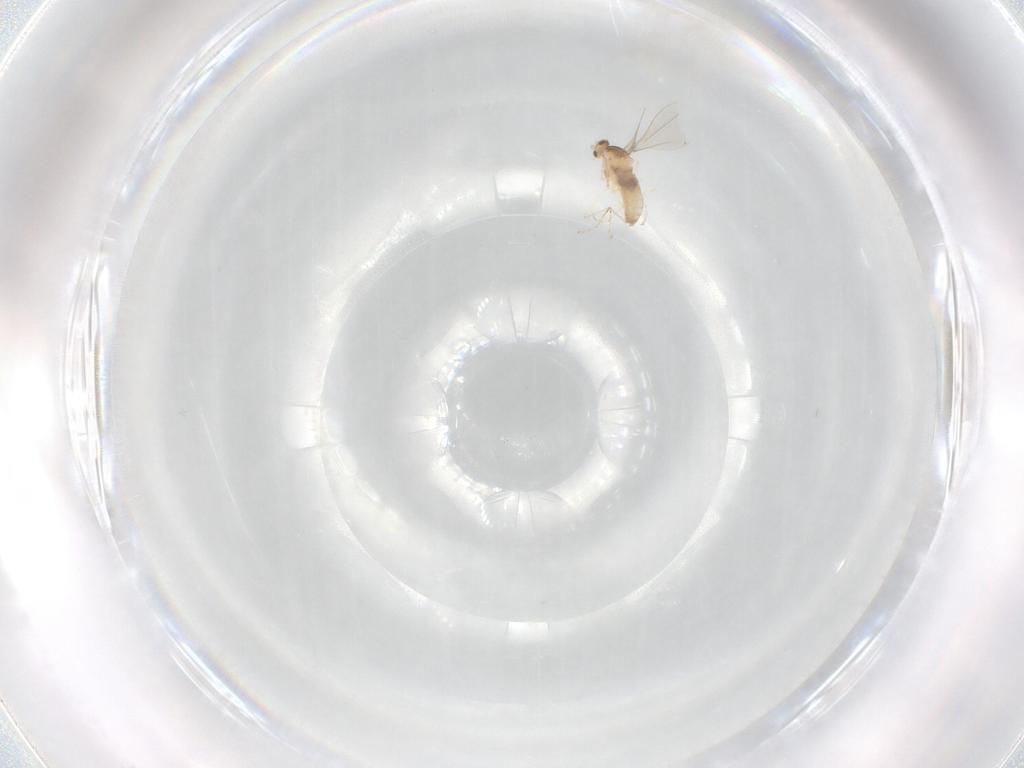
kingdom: Animalia
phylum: Arthropoda
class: Insecta
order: Diptera
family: Cecidomyiidae
